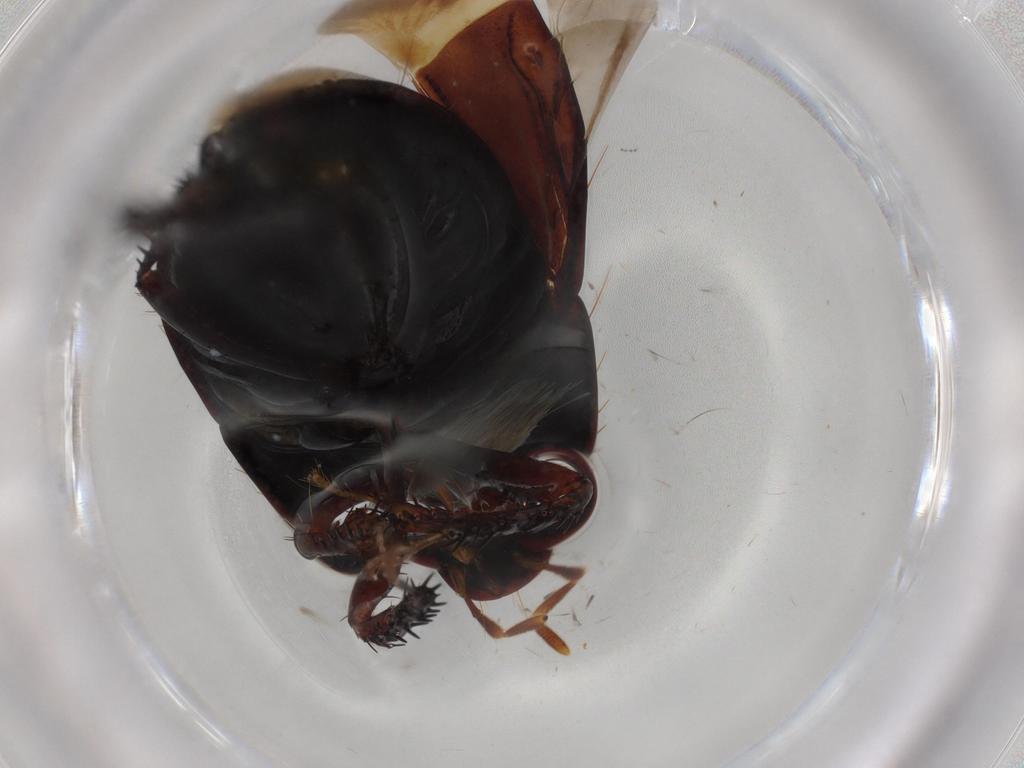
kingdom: Animalia
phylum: Arthropoda
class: Insecta
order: Hemiptera
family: Cydnidae
